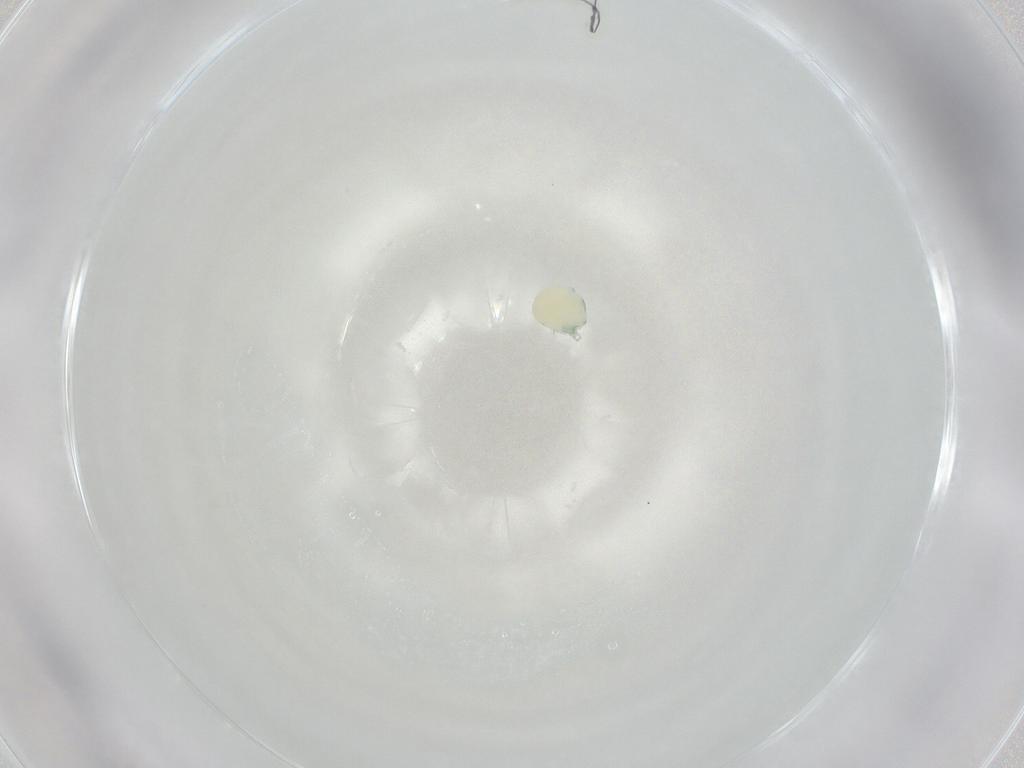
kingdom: Animalia
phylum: Arthropoda
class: Arachnida
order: Trombidiformes
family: Arrenuridae
